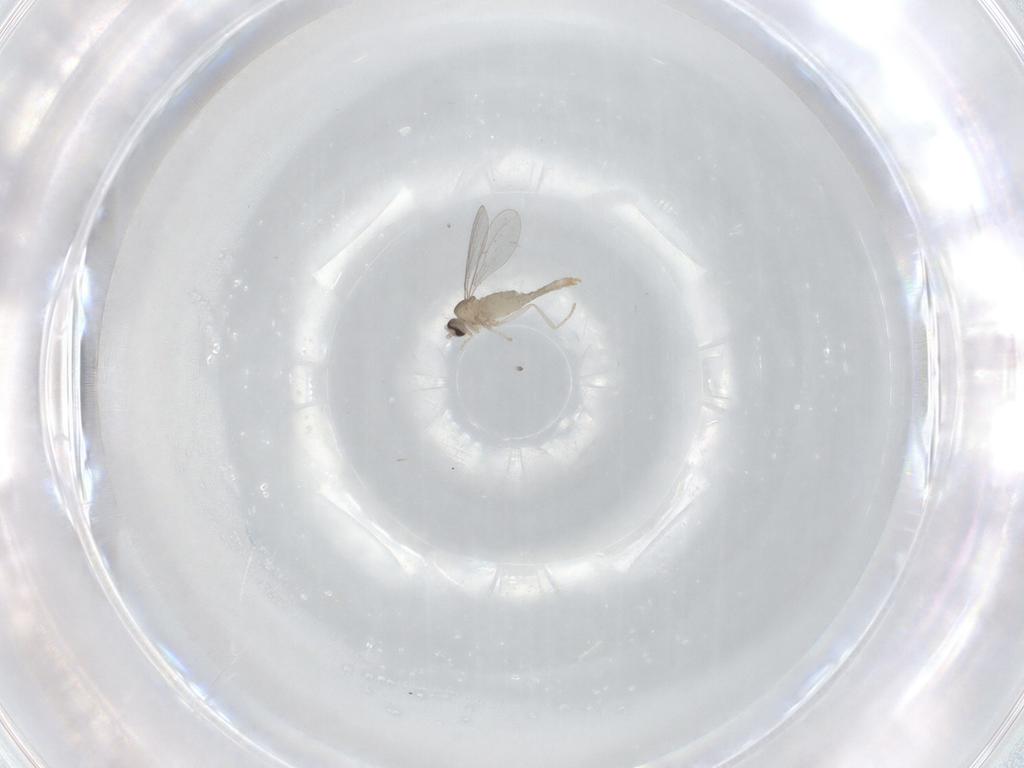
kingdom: Animalia
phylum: Arthropoda
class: Insecta
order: Diptera
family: Cecidomyiidae
